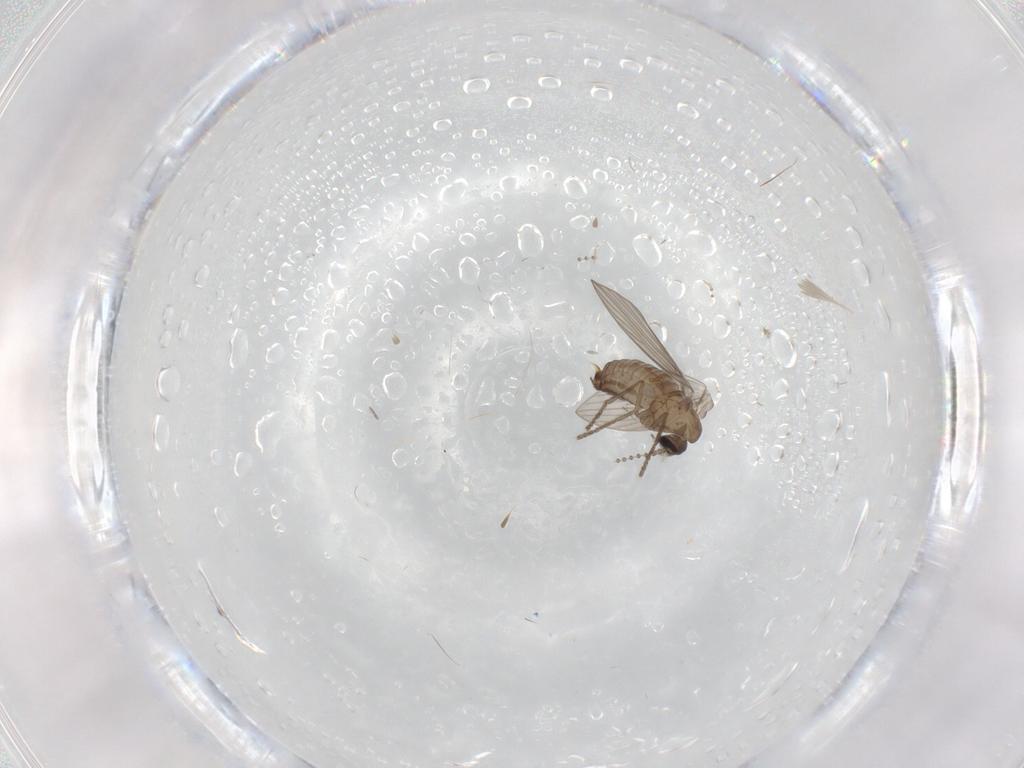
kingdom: Animalia
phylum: Arthropoda
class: Insecta
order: Diptera
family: Psychodidae
